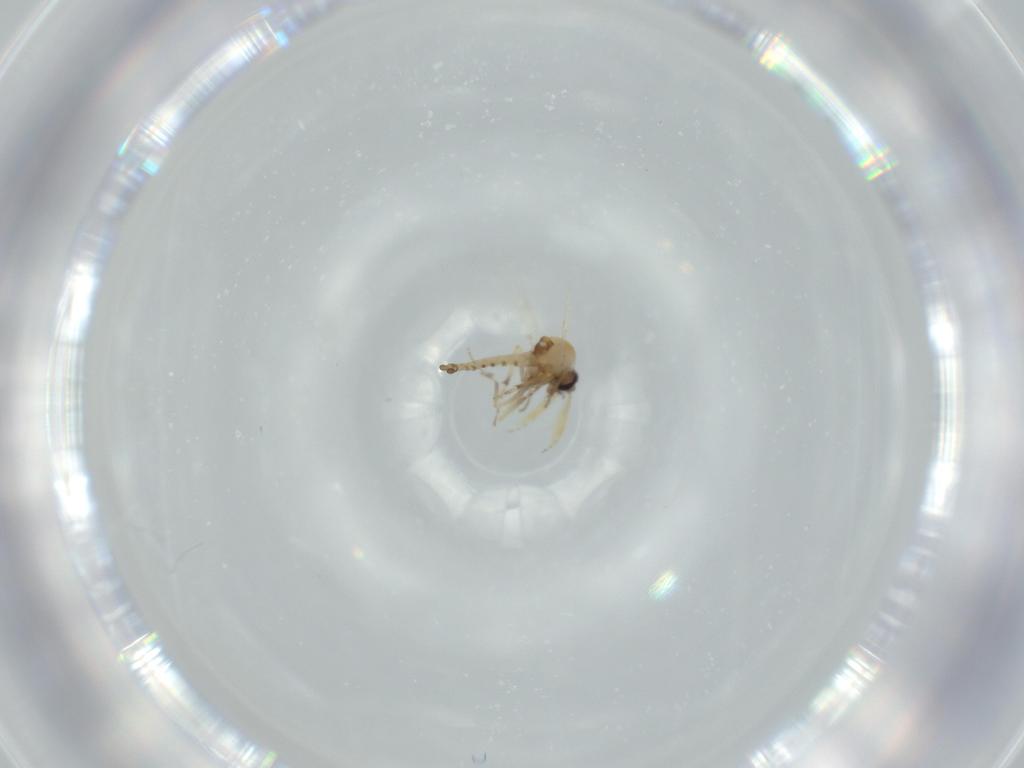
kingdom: Animalia
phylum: Arthropoda
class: Insecta
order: Diptera
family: Ceratopogonidae
